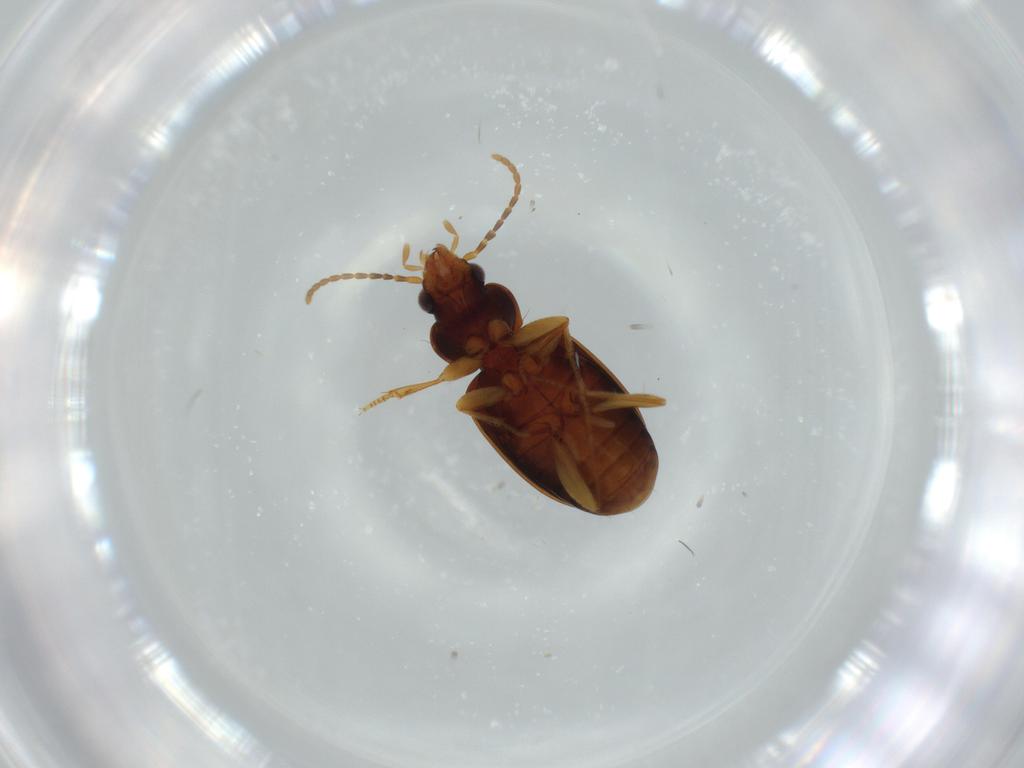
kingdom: Animalia
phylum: Arthropoda
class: Insecta
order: Coleoptera
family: Carabidae
